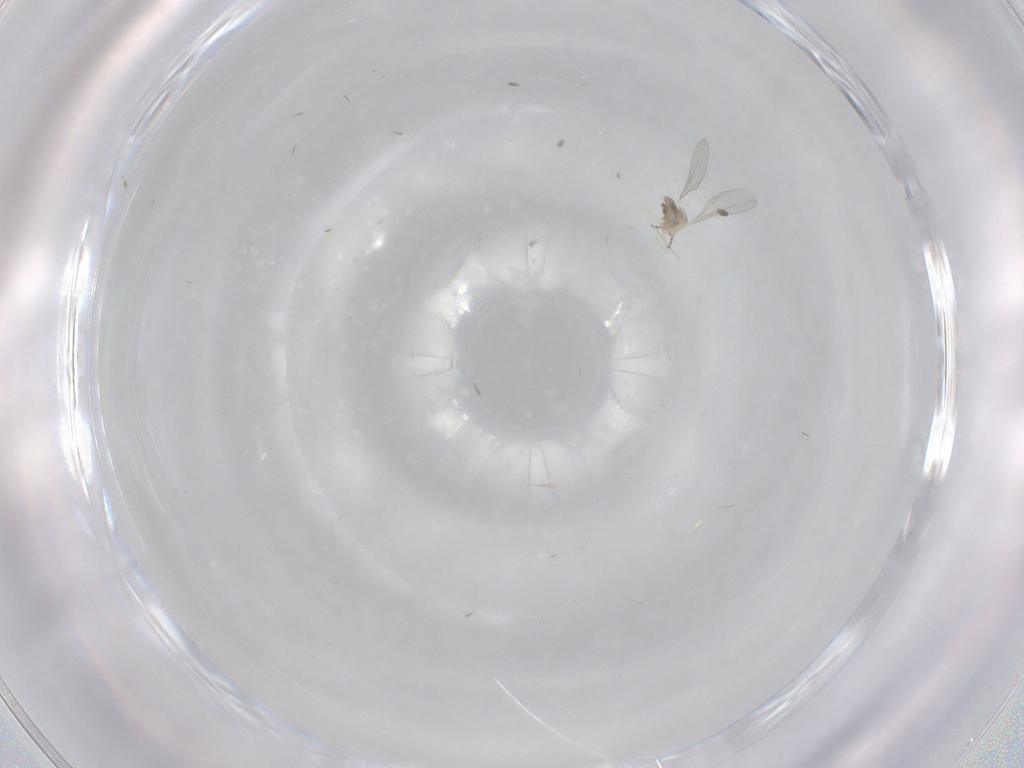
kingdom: Animalia
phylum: Arthropoda
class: Insecta
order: Diptera
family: Cecidomyiidae
